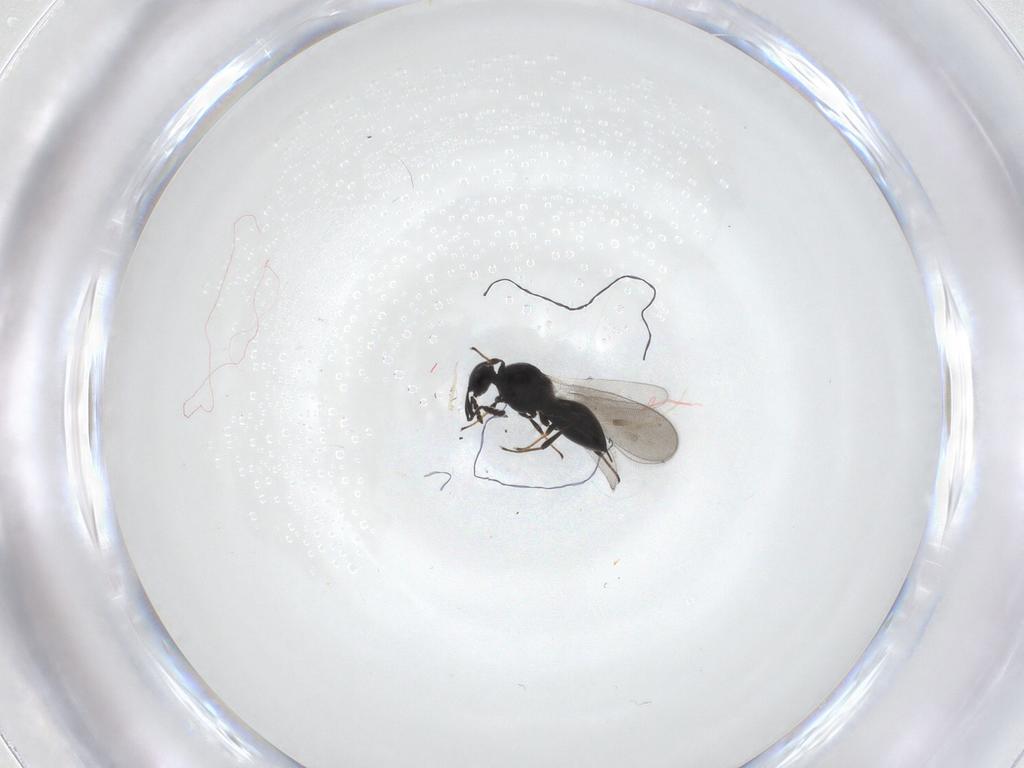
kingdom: Animalia
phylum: Arthropoda
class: Insecta
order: Hymenoptera
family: Platygastridae
